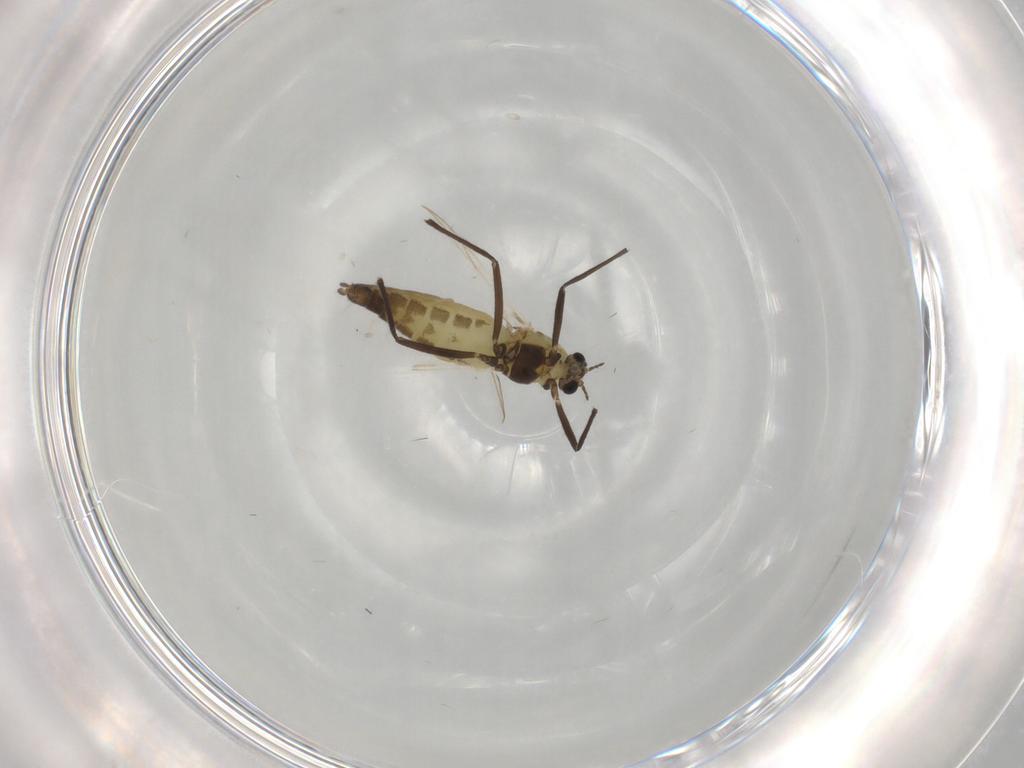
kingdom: Animalia
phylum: Arthropoda
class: Insecta
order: Diptera
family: Chironomidae
